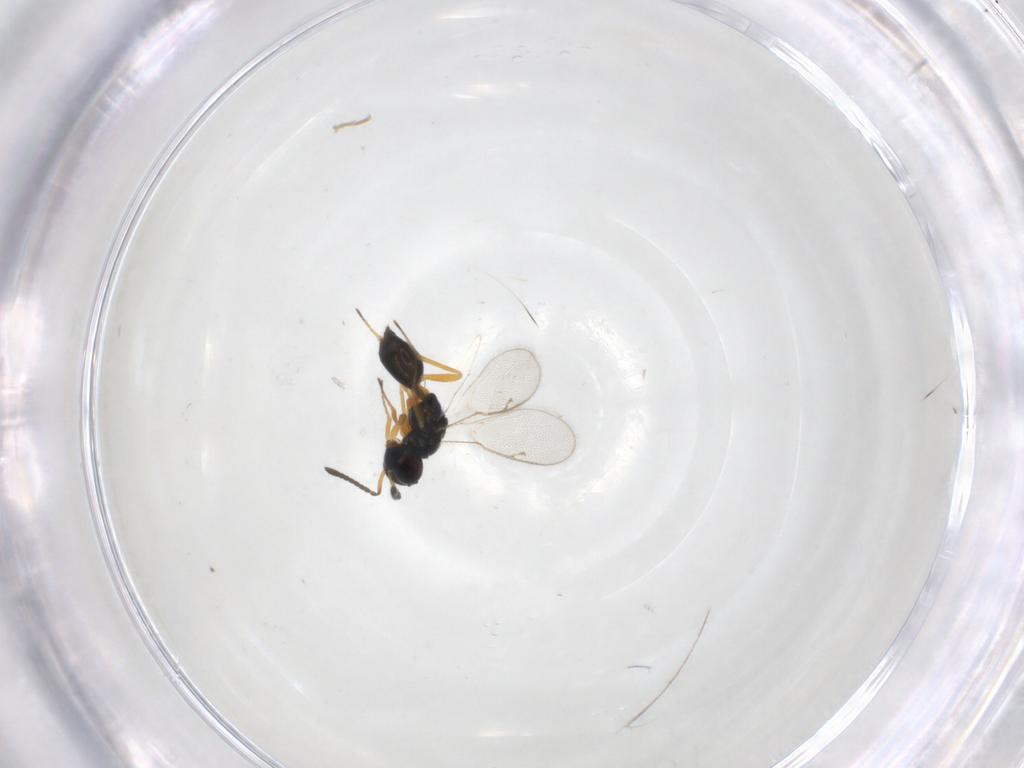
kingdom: Animalia
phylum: Arthropoda
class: Insecta
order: Hymenoptera
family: Pteromalidae
